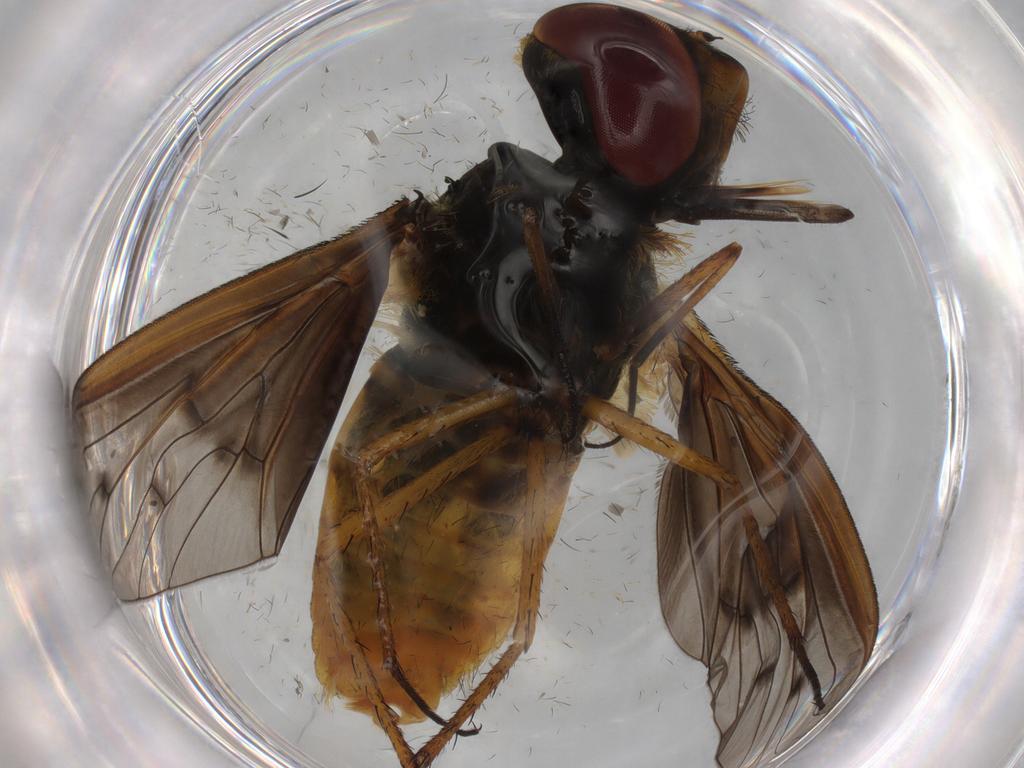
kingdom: Animalia
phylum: Arthropoda
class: Insecta
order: Diptera
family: Bombyliidae
